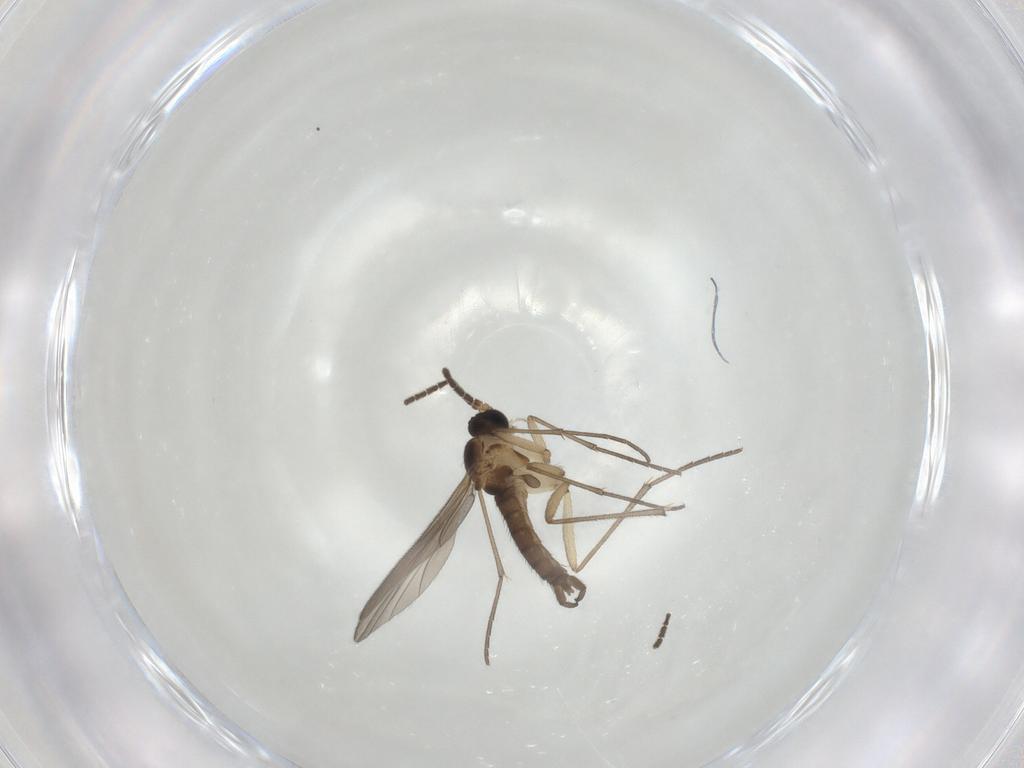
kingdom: Animalia
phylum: Arthropoda
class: Insecta
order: Diptera
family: Sciaridae
